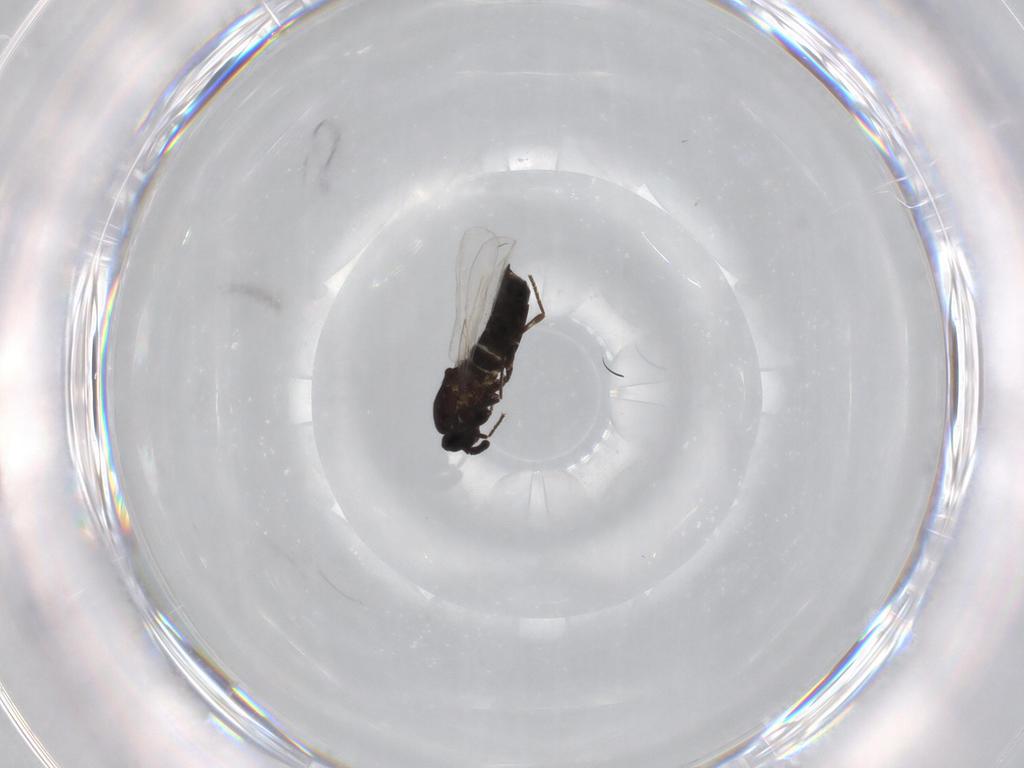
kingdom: Animalia
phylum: Arthropoda
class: Insecta
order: Diptera
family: Scatopsidae
